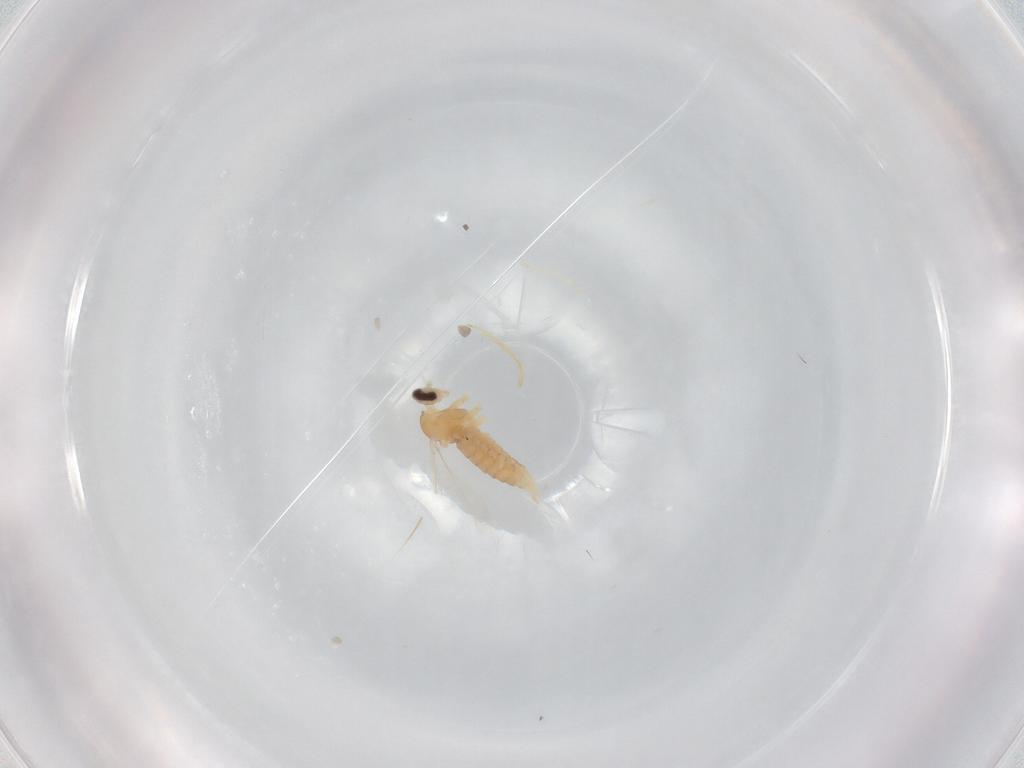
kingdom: Animalia
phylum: Arthropoda
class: Insecta
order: Diptera
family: Cecidomyiidae
